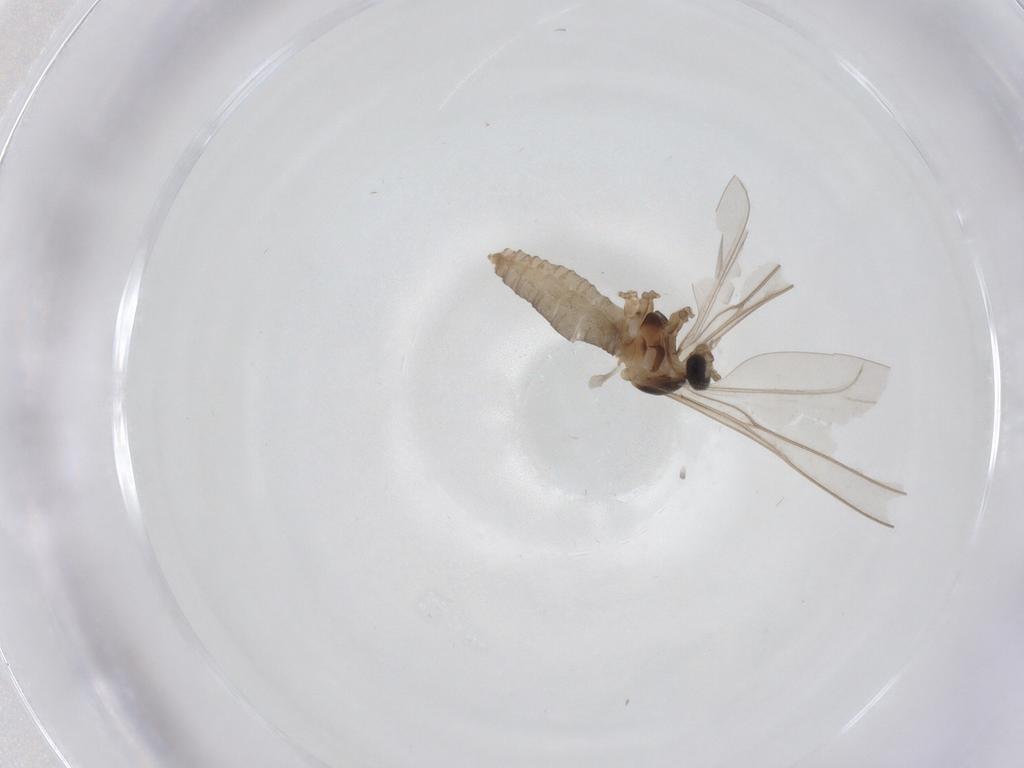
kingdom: Animalia
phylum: Arthropoda
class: Insecta
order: Diptera
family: Cecidomyiidae
